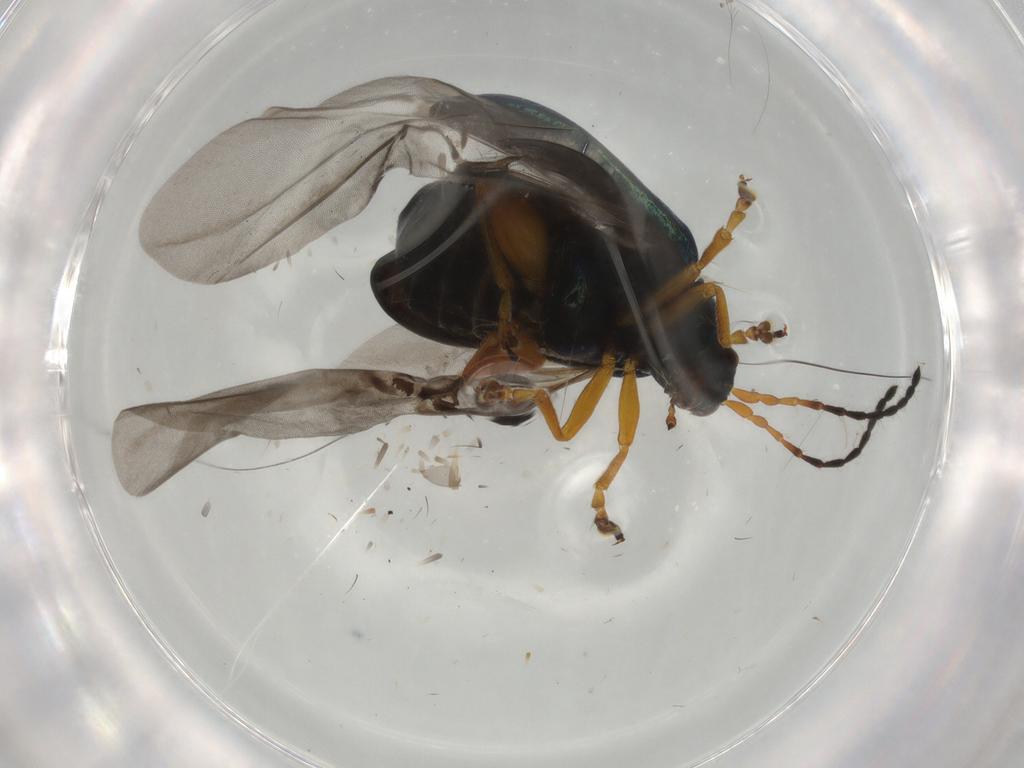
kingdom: Animalia
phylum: Arthropoda
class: Insecta
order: Coleoptera
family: Chrysomelidae
